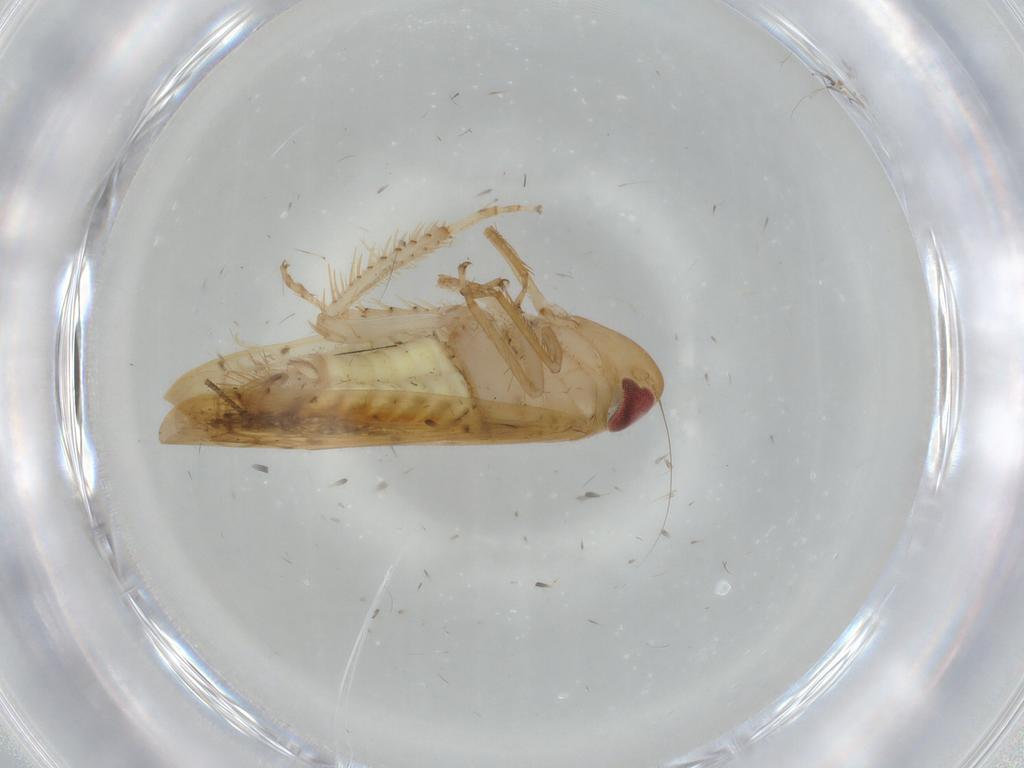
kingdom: Animalia
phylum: Arthropoda
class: Insecta
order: Hemiptera
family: Cicadellidae
